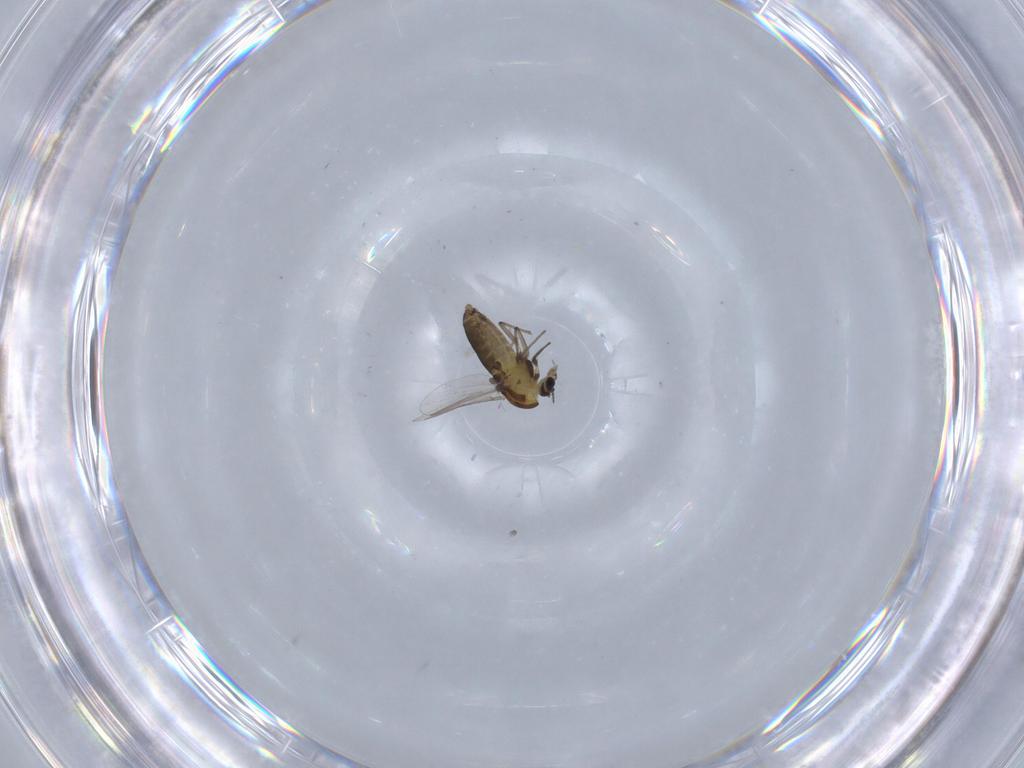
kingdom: Animalia
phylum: Arthropoda
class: Insecta
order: Diptera
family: Chironomidae
